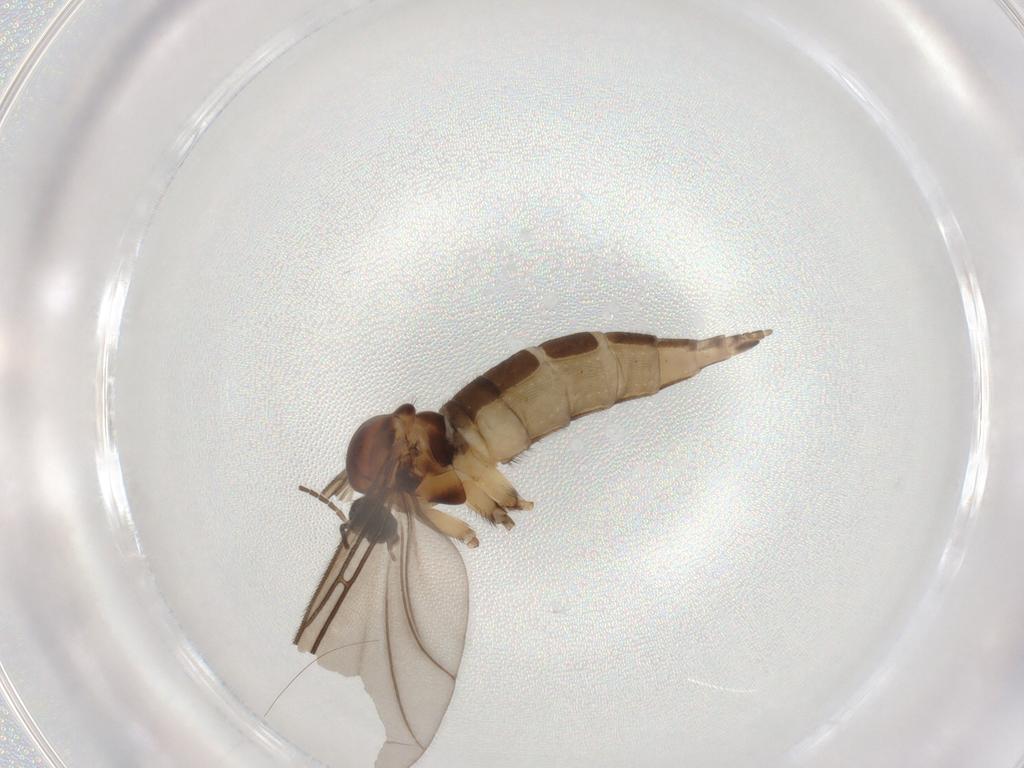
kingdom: Animalia
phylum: Arthropoda
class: Insecta
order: Diptera
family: Sciaridae
